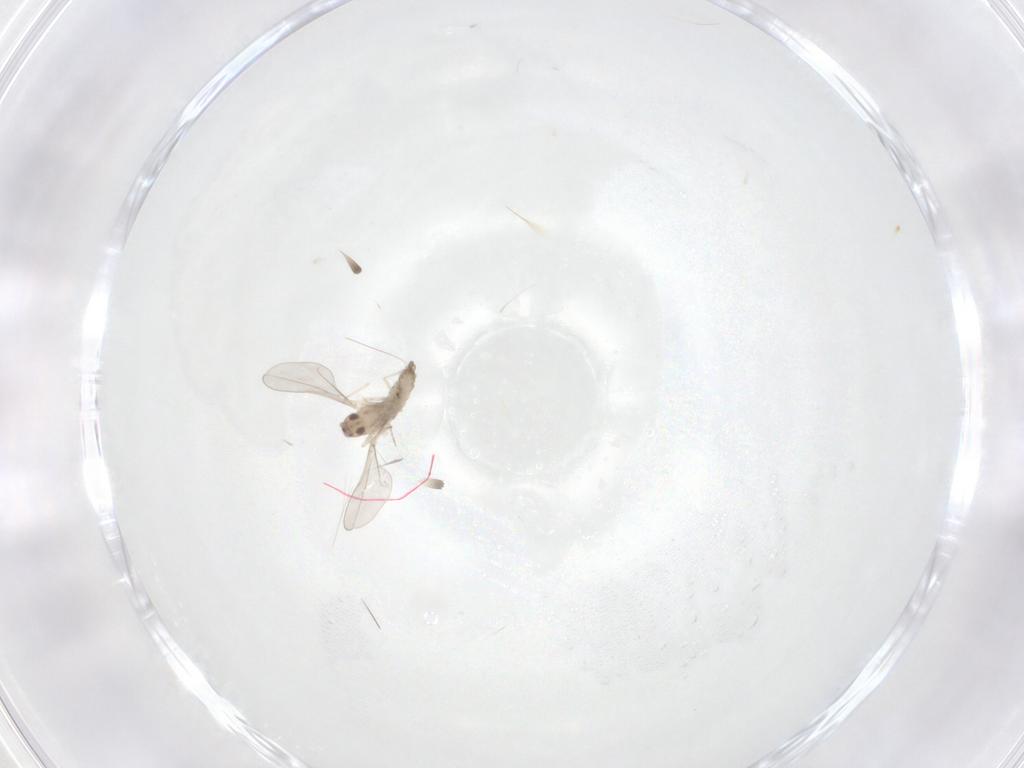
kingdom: Animalia
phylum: Arthropoda
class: Insecta
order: Diptera
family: Cecidomyiidae
